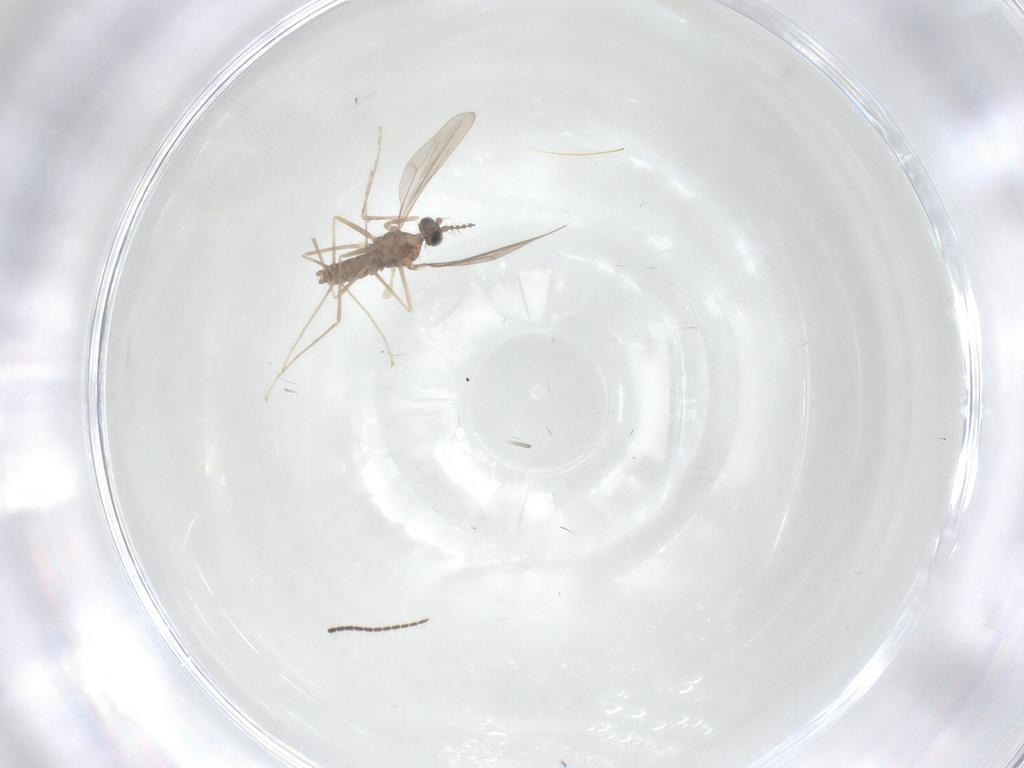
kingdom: Animalia
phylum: Arthropoda
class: Insecta
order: Diptera
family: Cecidomyiidae
